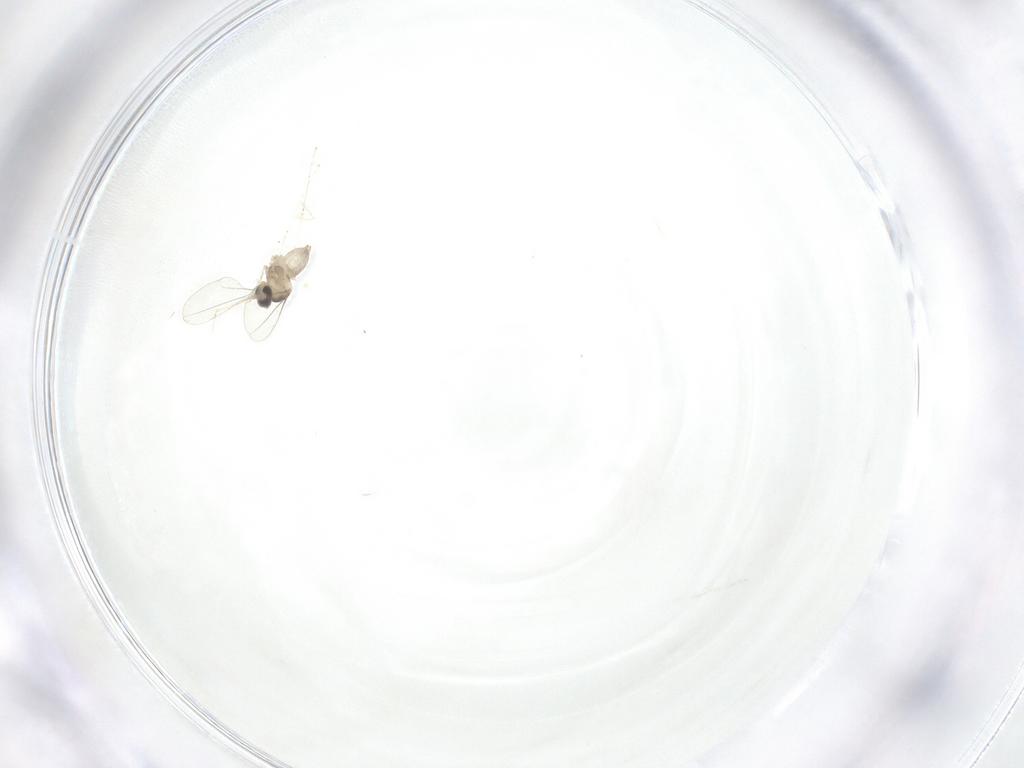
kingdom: Animalia
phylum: Arthropoda
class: Insecta
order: Diptera
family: Cecidomyiidae
